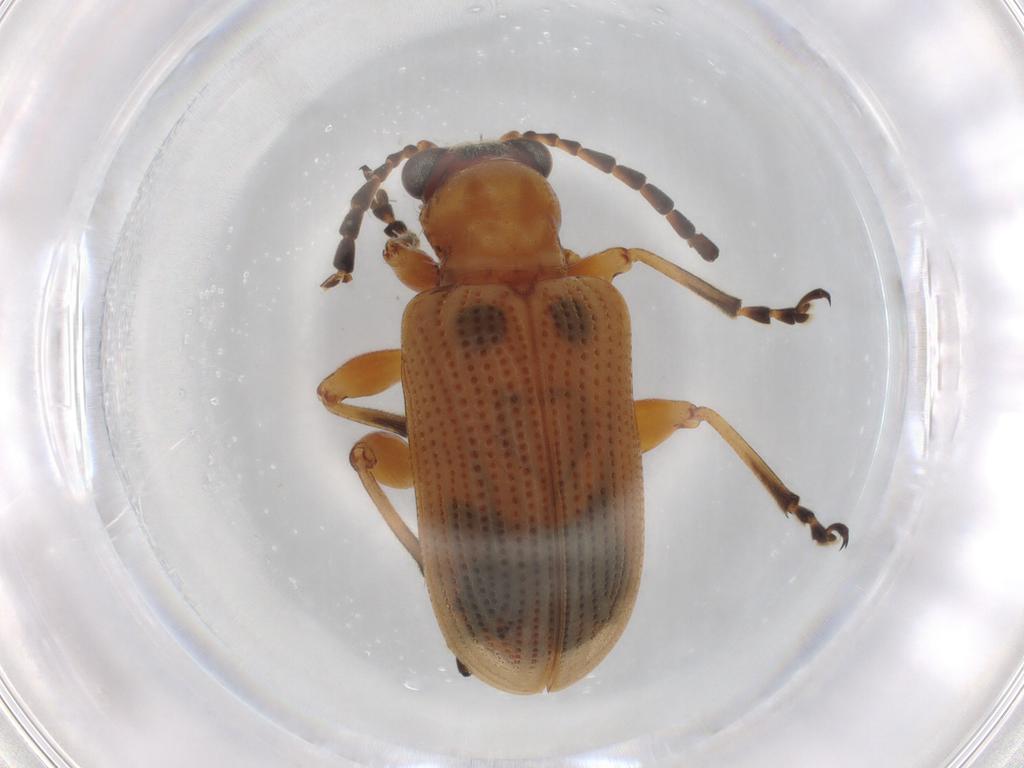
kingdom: Animalia
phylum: Arthropoda
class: Insecta
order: Coleoptera
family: Chrysomelidae
